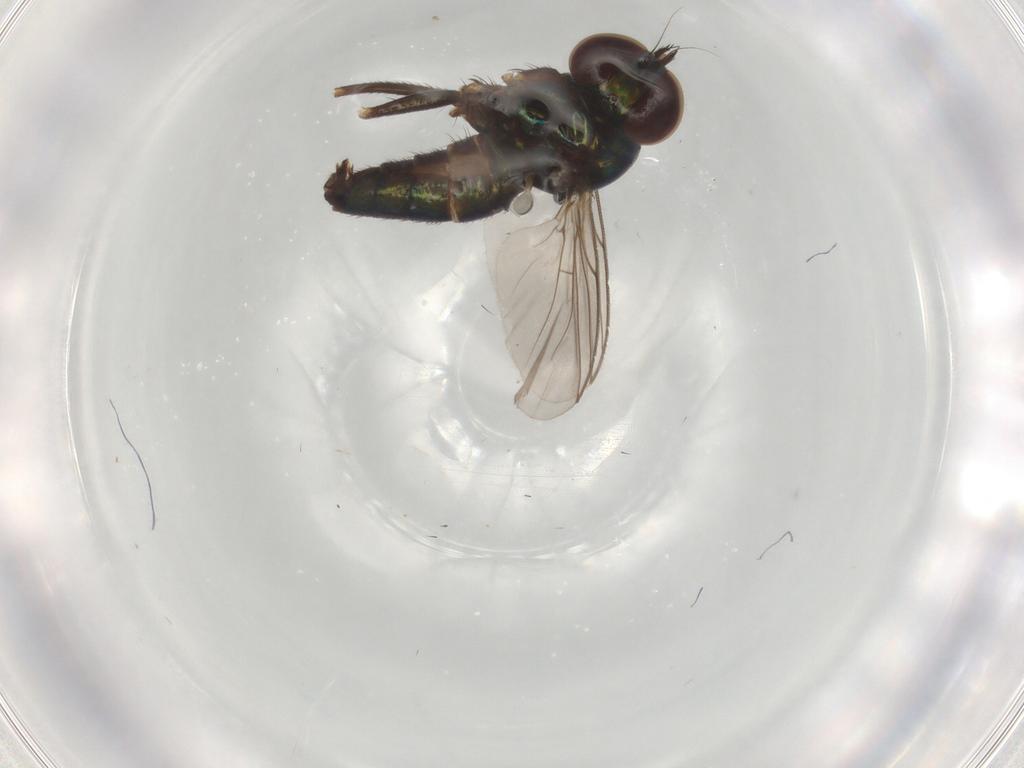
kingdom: Animalia
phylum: Arthropoda
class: Insecta
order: Diptera
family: Dolichopodidae
